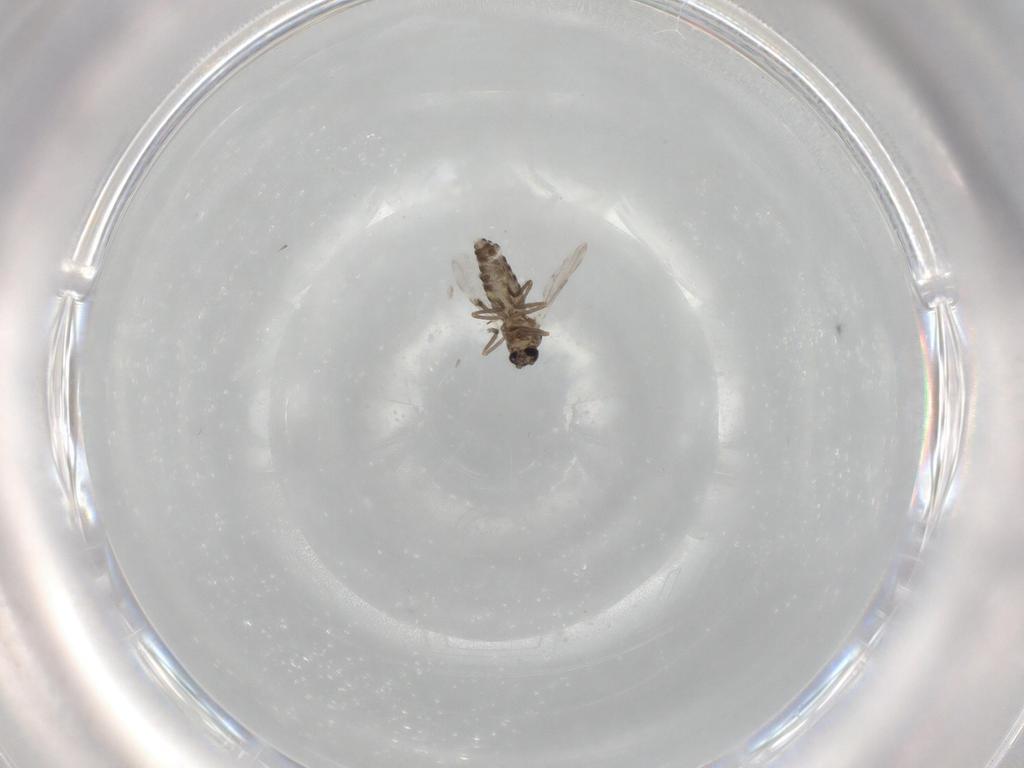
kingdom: Animalia
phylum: Arthropoda
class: Insecta
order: Diptera
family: Ceratopogonidae
